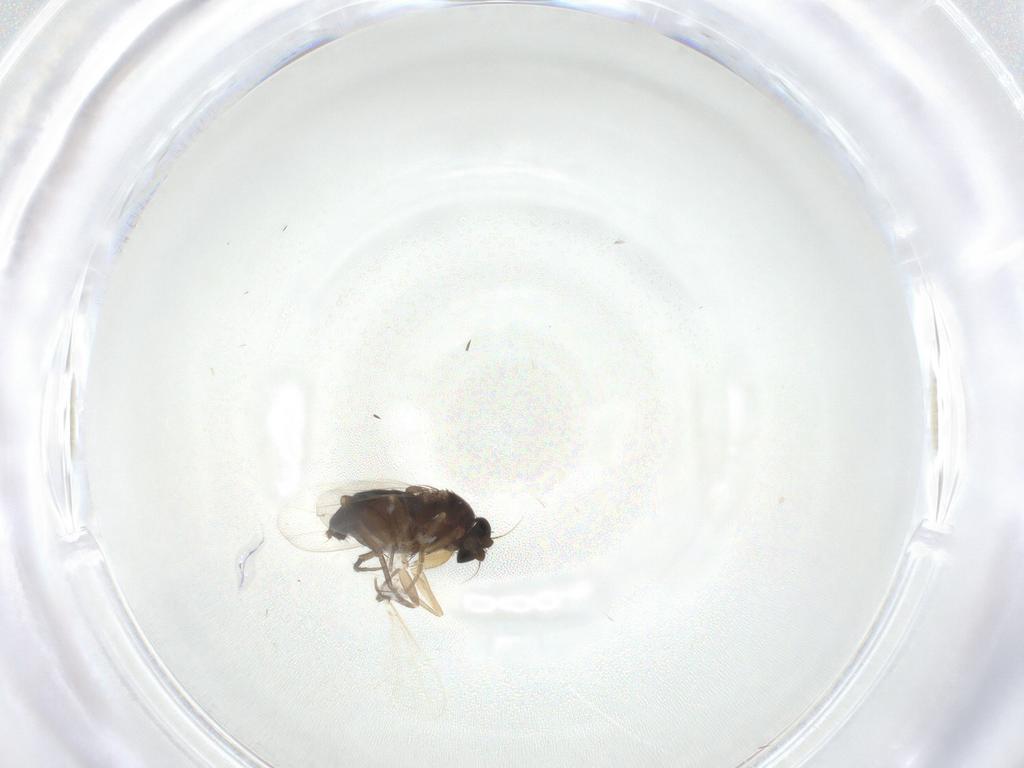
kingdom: Animalia
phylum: Arthropoda
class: Insecta
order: Diptera
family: Phoridae
